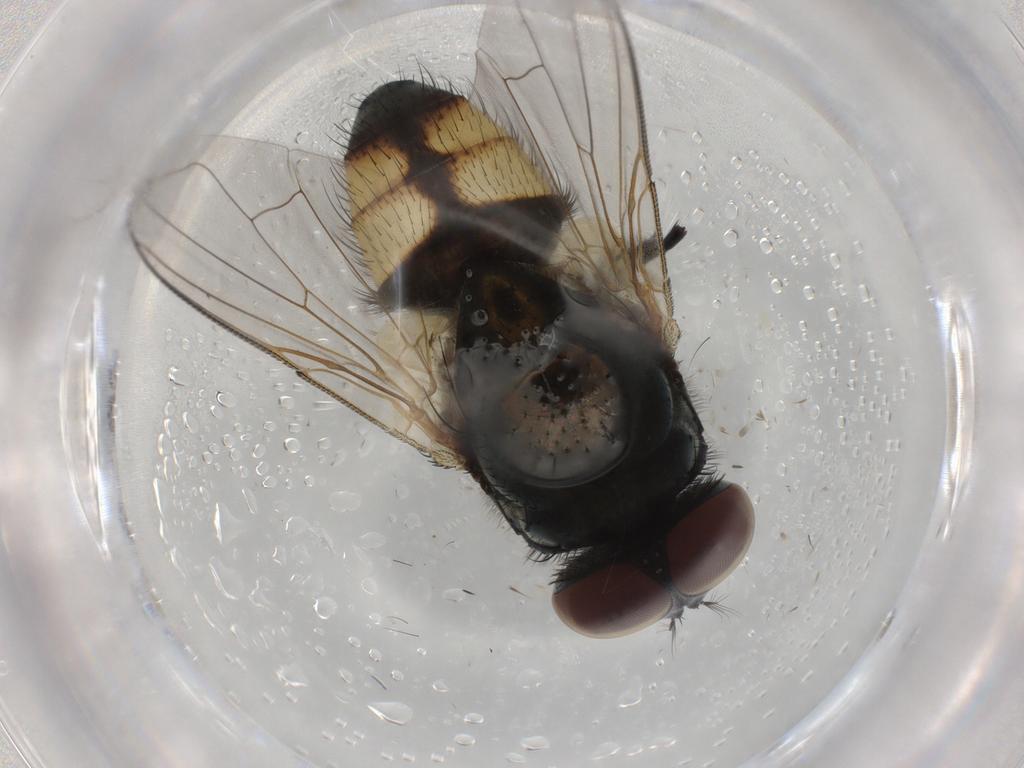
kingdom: Animalia
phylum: Arthropoda
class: Insecta
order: Diptera
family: Muscidae
